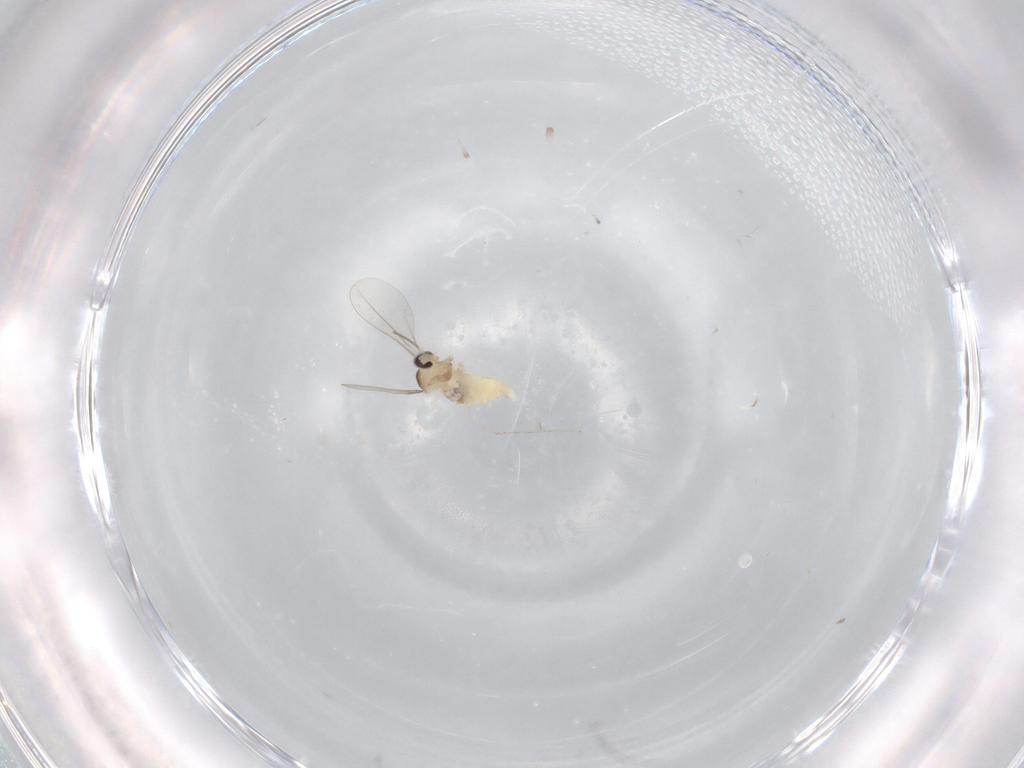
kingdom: Animalia
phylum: Arthropoda
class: Insecta
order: Diptera
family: Cecidomyiidae
